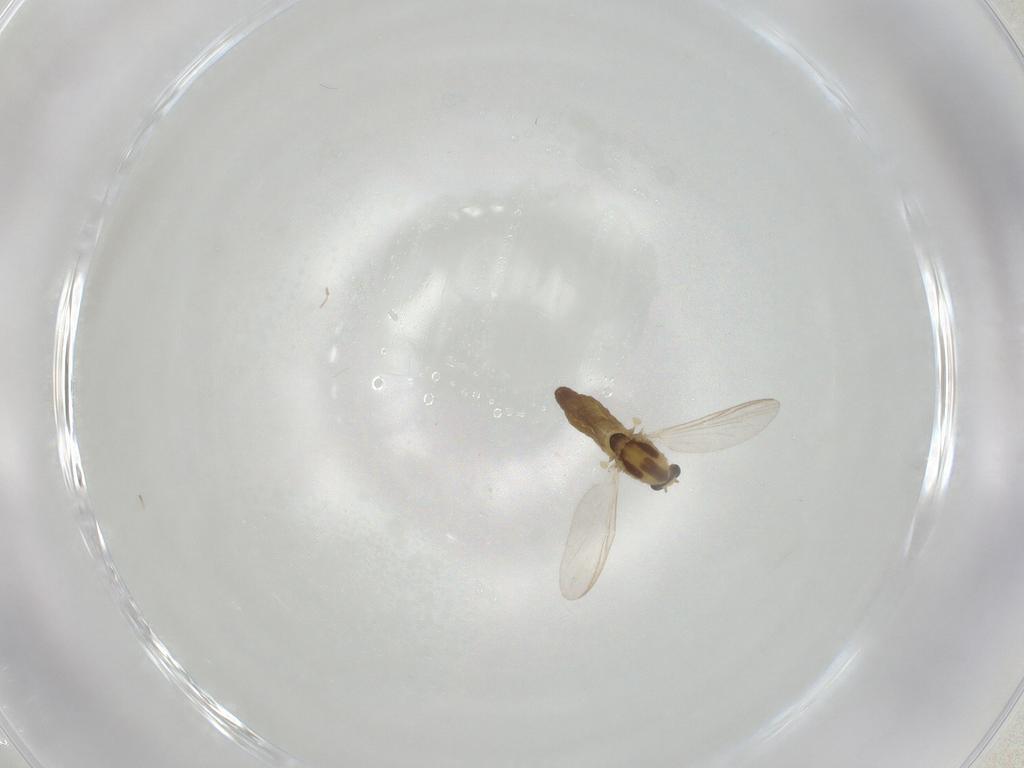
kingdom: Animalia
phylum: Arthropoda
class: Insecta
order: Diptera
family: Chironomidae
